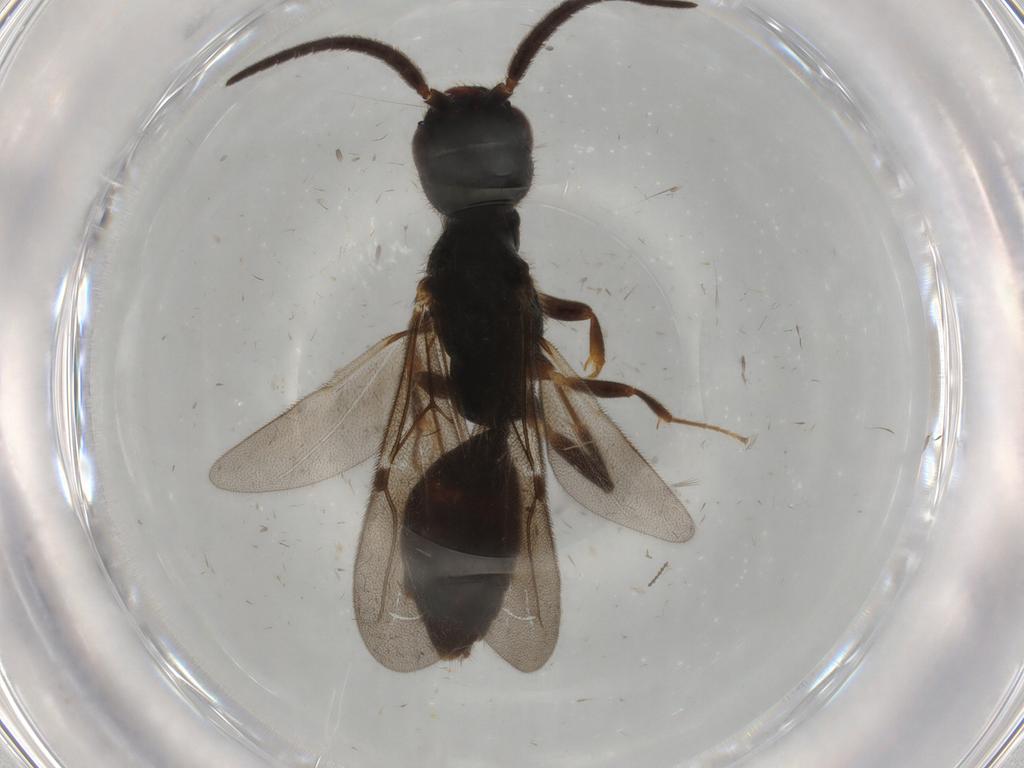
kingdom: Animalia
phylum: Arthropoda
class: Insecta
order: Hymenoptera
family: Bethylidae
